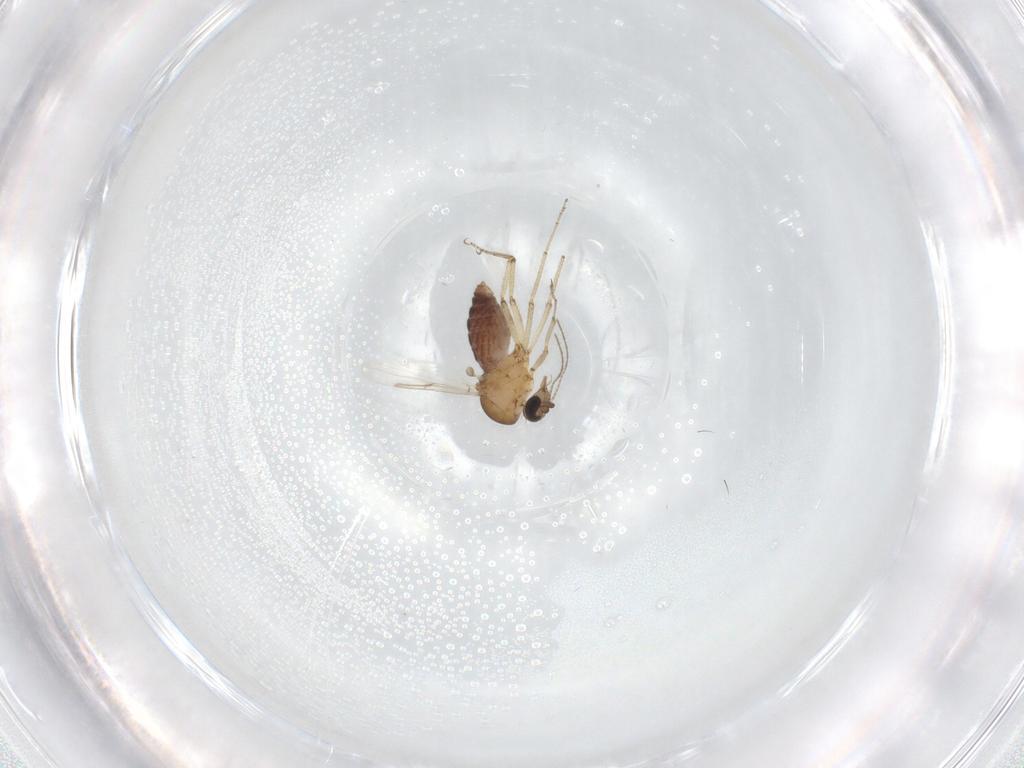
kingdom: Animalia
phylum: Arthropoda
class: Insecta
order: Diptera
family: Ceratopogonidae
